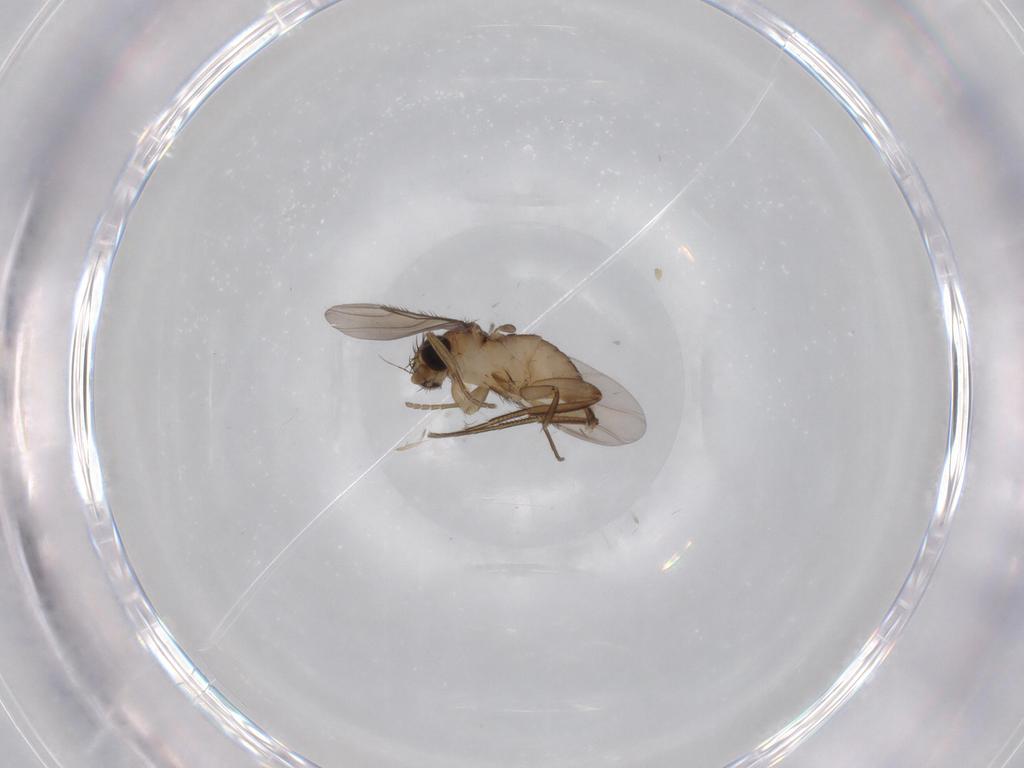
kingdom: Animalia
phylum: Arthropoda
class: Insecta
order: Diptera
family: Phoridae
